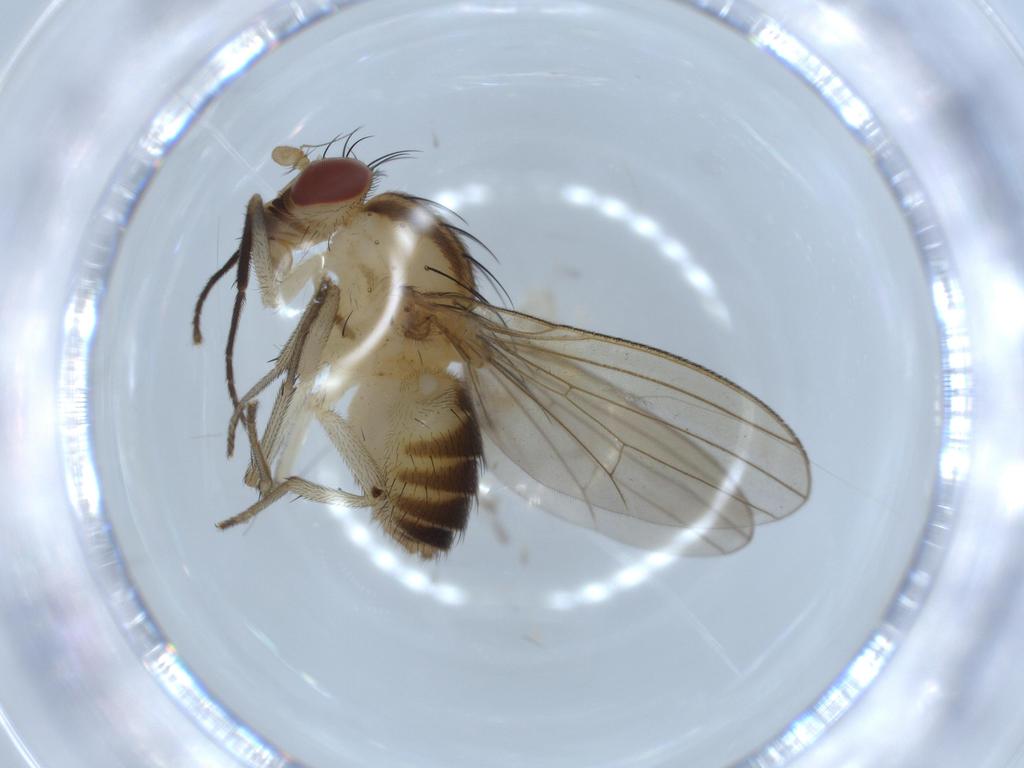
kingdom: Animalia
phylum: Arthropoda
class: Insecta
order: Diptera
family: Lauxaniidae
